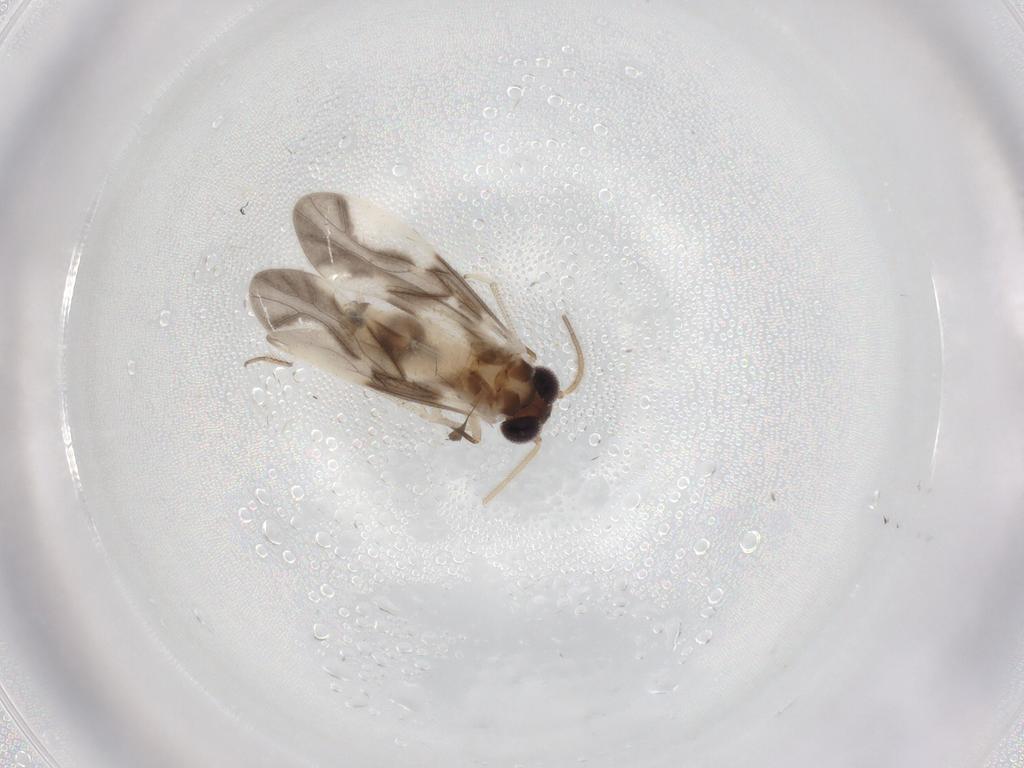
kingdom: Animalia
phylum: Arthropoda
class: Insecta
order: Psocodea
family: Caeciliusidae
